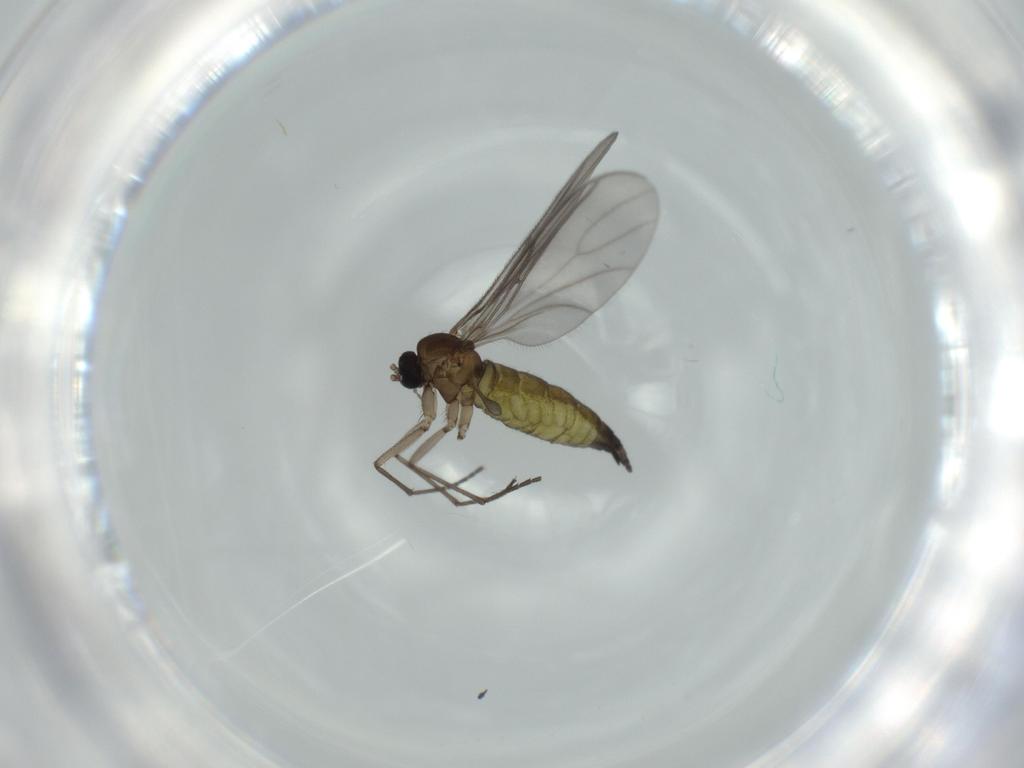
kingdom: Animalia
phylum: Arthropoda
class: Insecta
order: Diptera
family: Sciaridae
